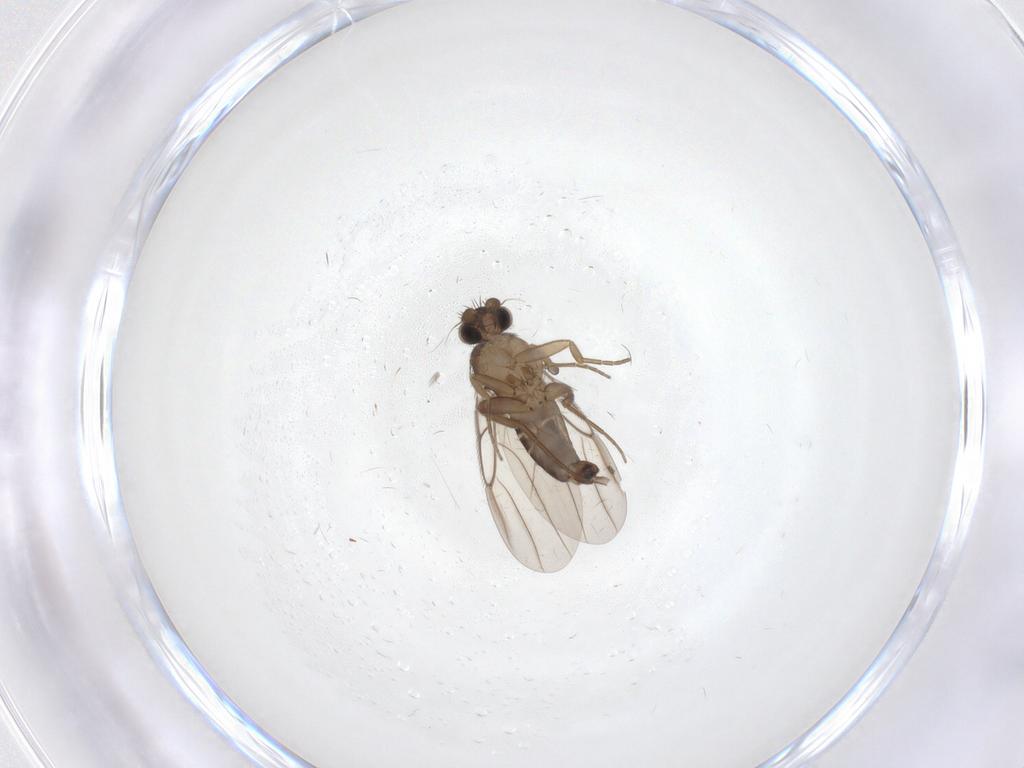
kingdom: Animalia
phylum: Arthropoda
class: Insecta
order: Diptera
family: Phoridae
